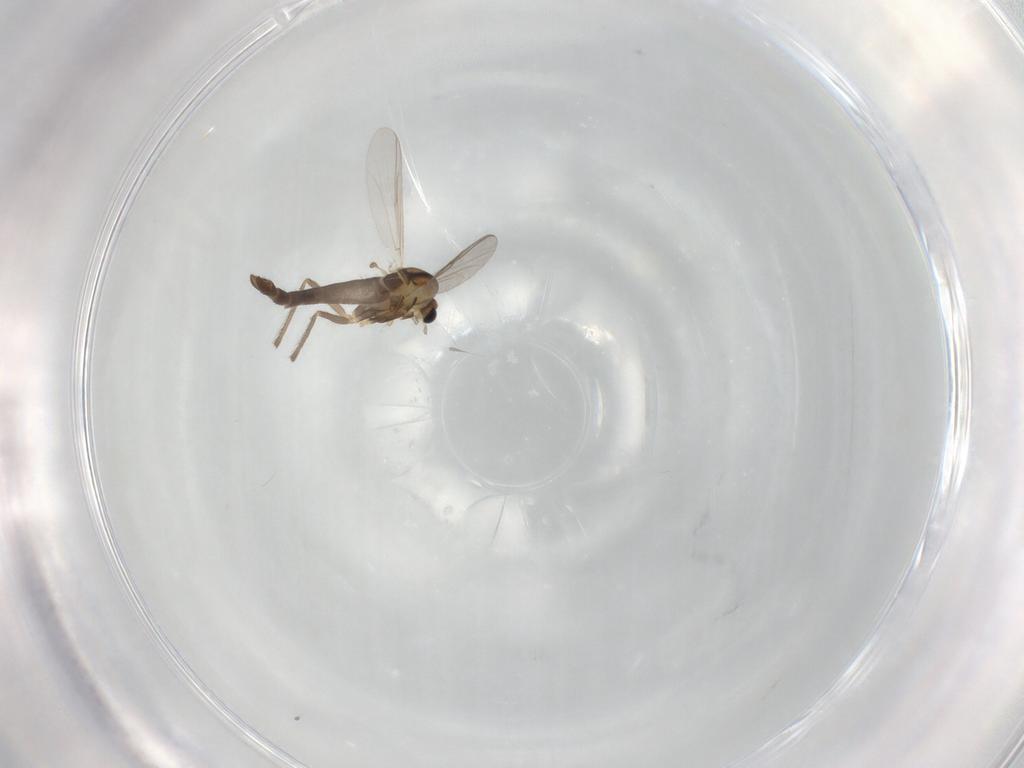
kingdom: Animalia
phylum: Arthropoda
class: Insecta
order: Diptera
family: Chironomidae
